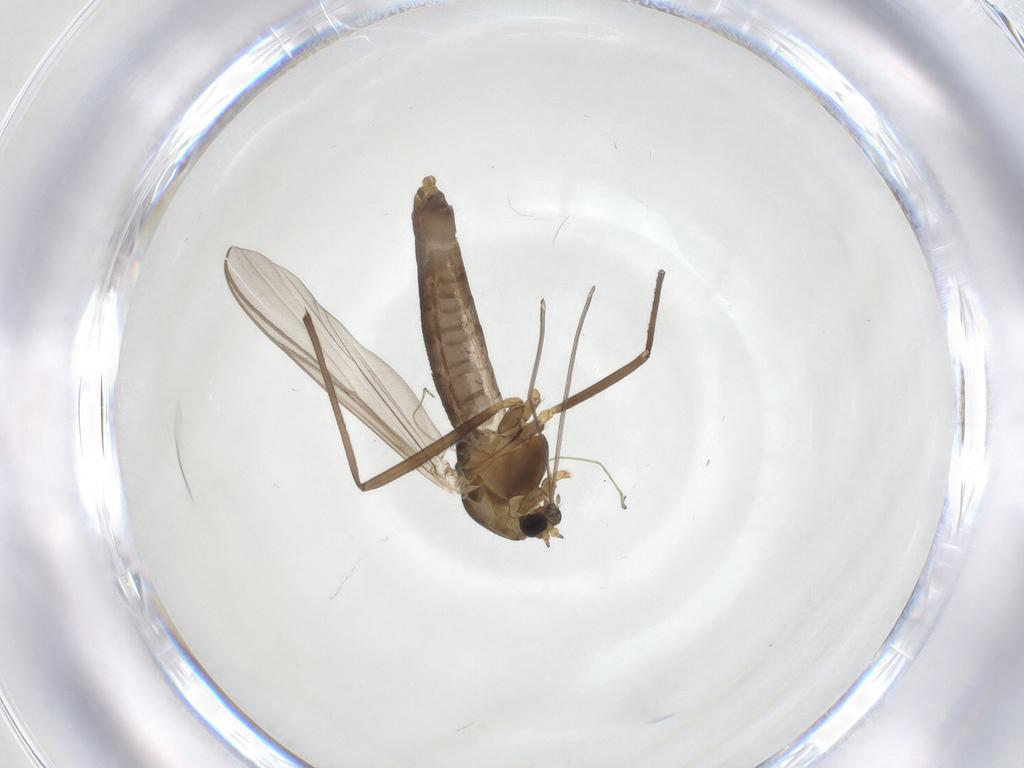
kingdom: Animalia
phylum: Arthropoda
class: Insecta
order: Diptera
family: Chironomidae
